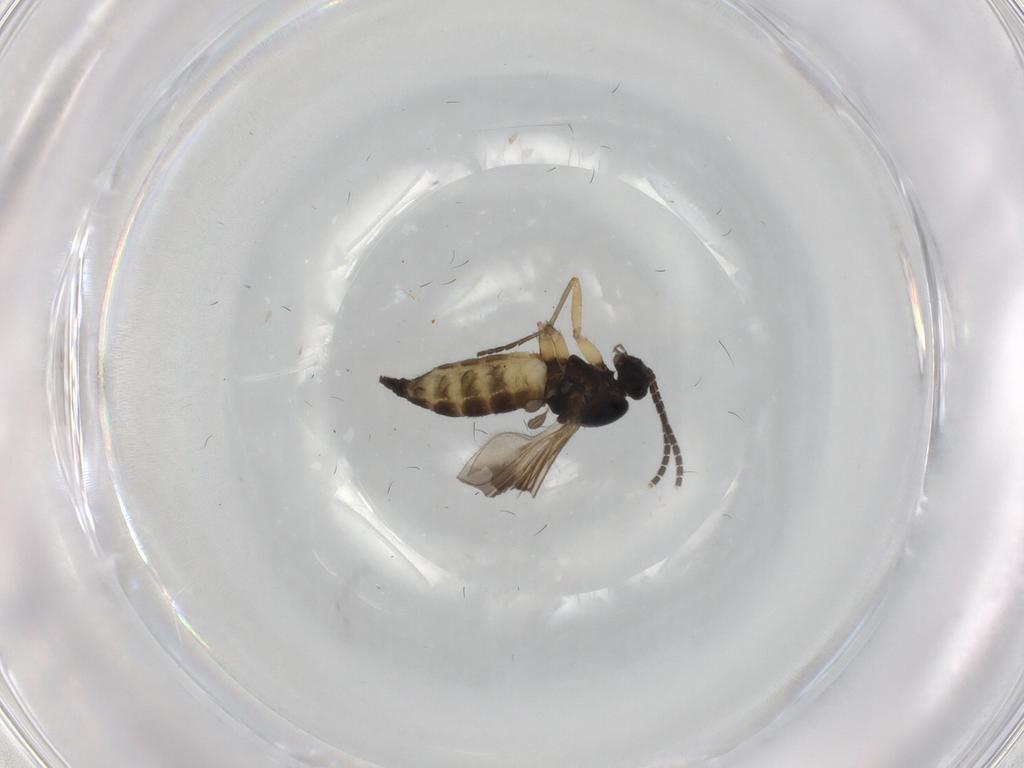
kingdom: Animalia
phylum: Arthropoda
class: Insecta
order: Diptera
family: Sciaridae
